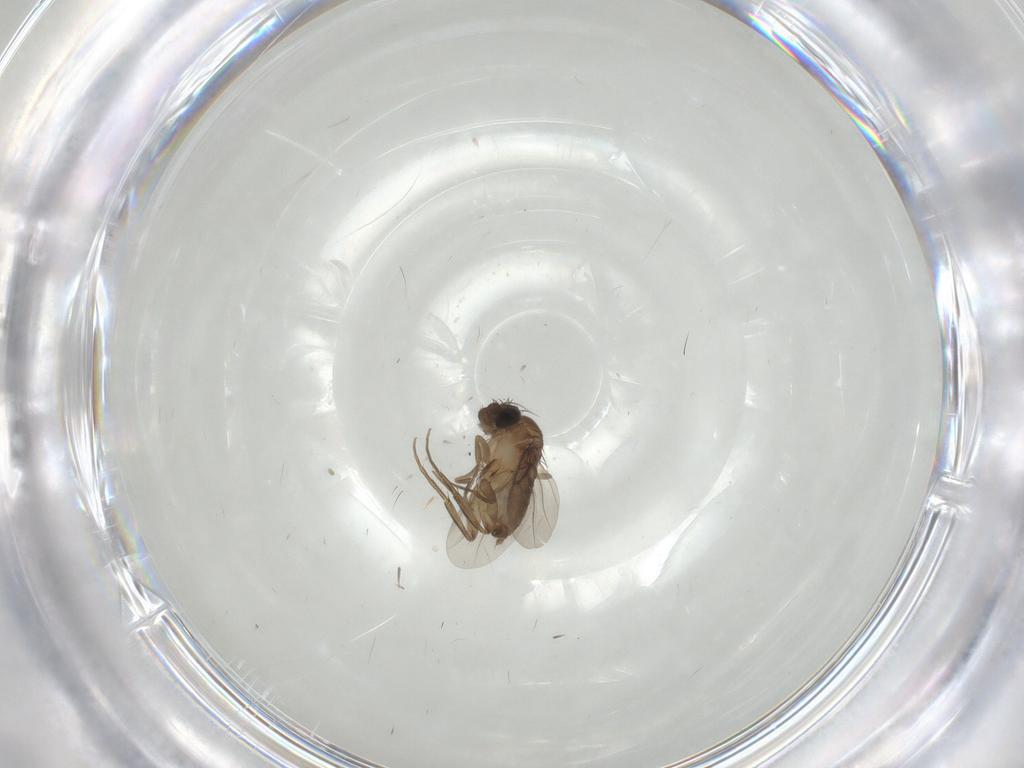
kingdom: Animalia
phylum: Arthropoda
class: Insecta
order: Diptera
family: Phoridae
